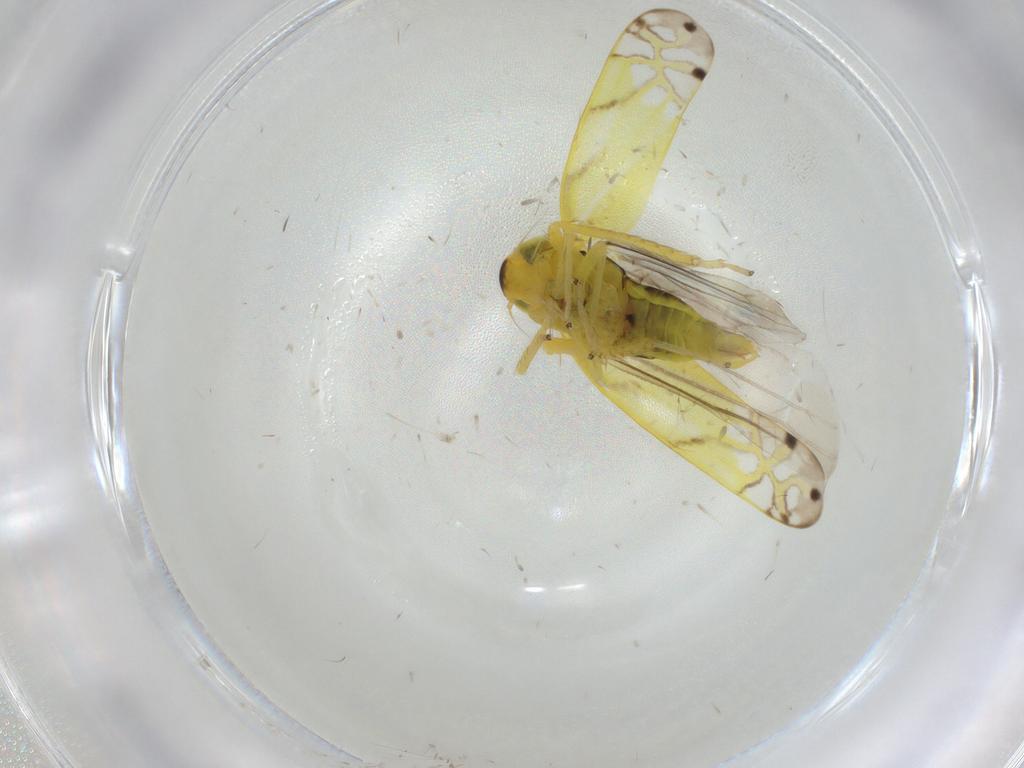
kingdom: Animalia
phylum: Arthropoda
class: Insecta
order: Hemiptera
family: Cicadellidae
